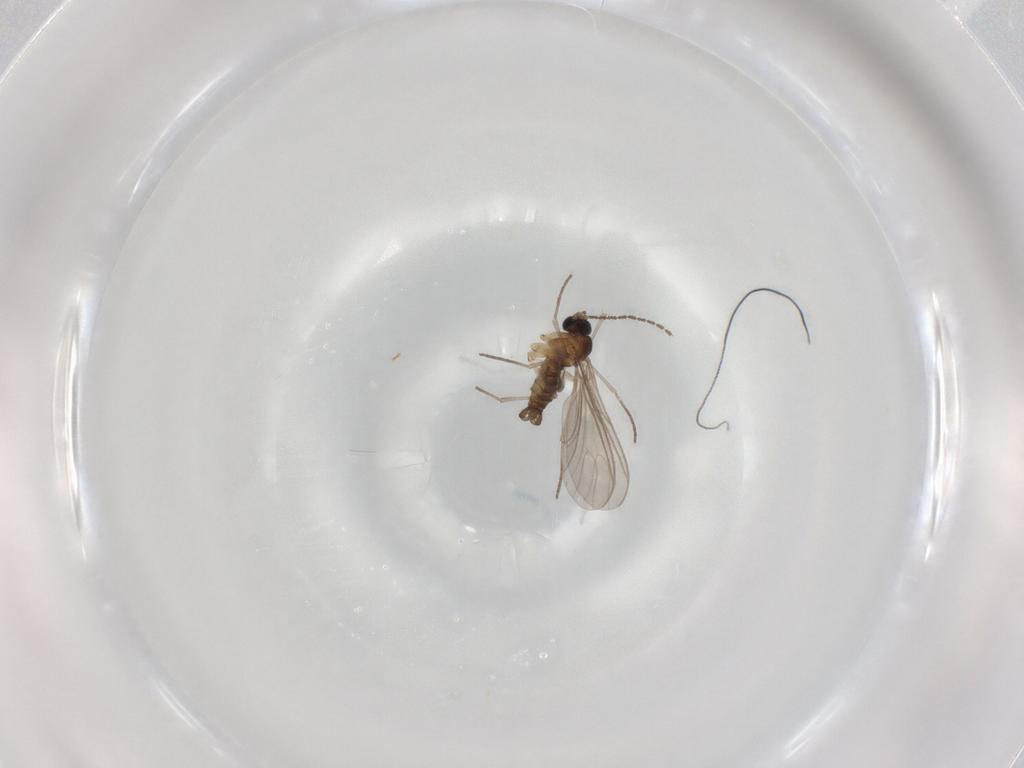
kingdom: Animalia
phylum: Arthropoda
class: Insecta
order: Diptera
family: Sciaridae
